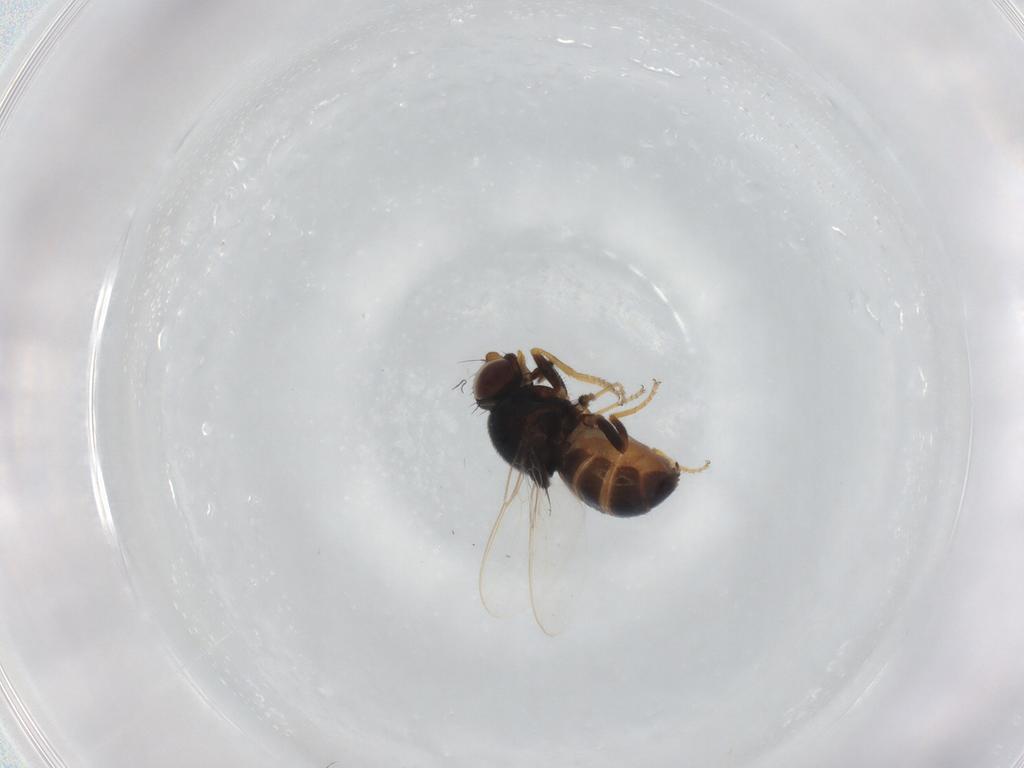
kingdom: Animalia
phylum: Arthropoda
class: Insecta
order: Diptera
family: Chloropidae
